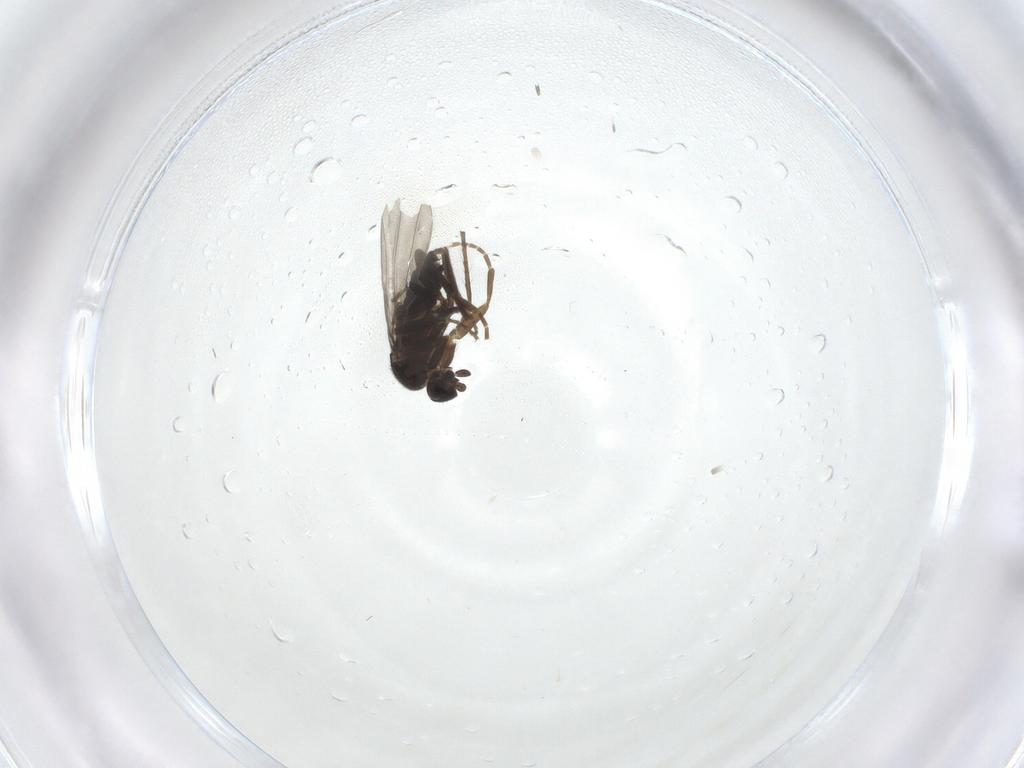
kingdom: Animalia
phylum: Arthropoda
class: Insecta
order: Diptera
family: Chironomidae
